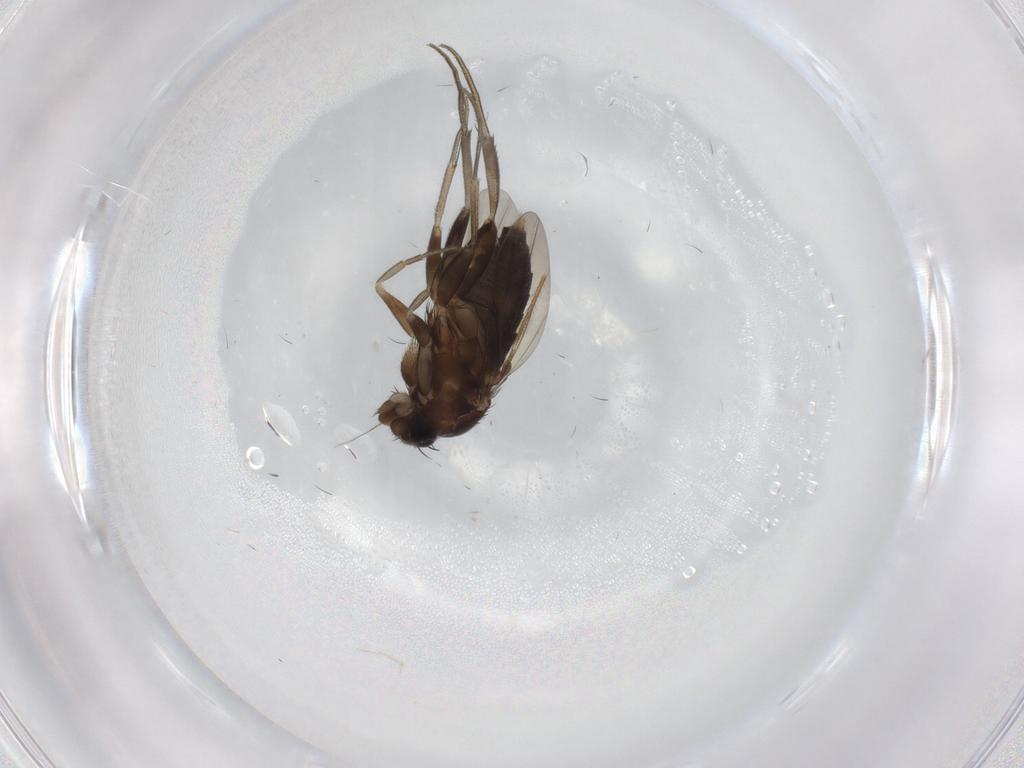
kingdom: Animalia
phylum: Arthropoda
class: Insecta
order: Diptera
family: Phoridae
